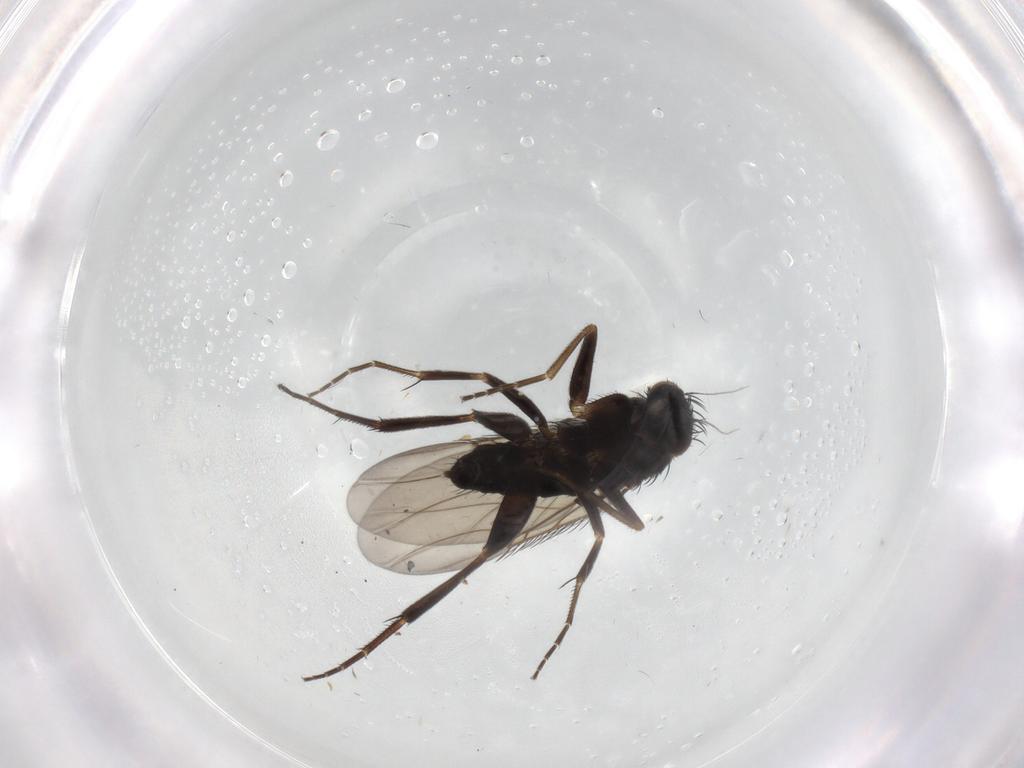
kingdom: Animalia
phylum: Arthropoda
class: Insecta
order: Diptera
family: Phoridae
